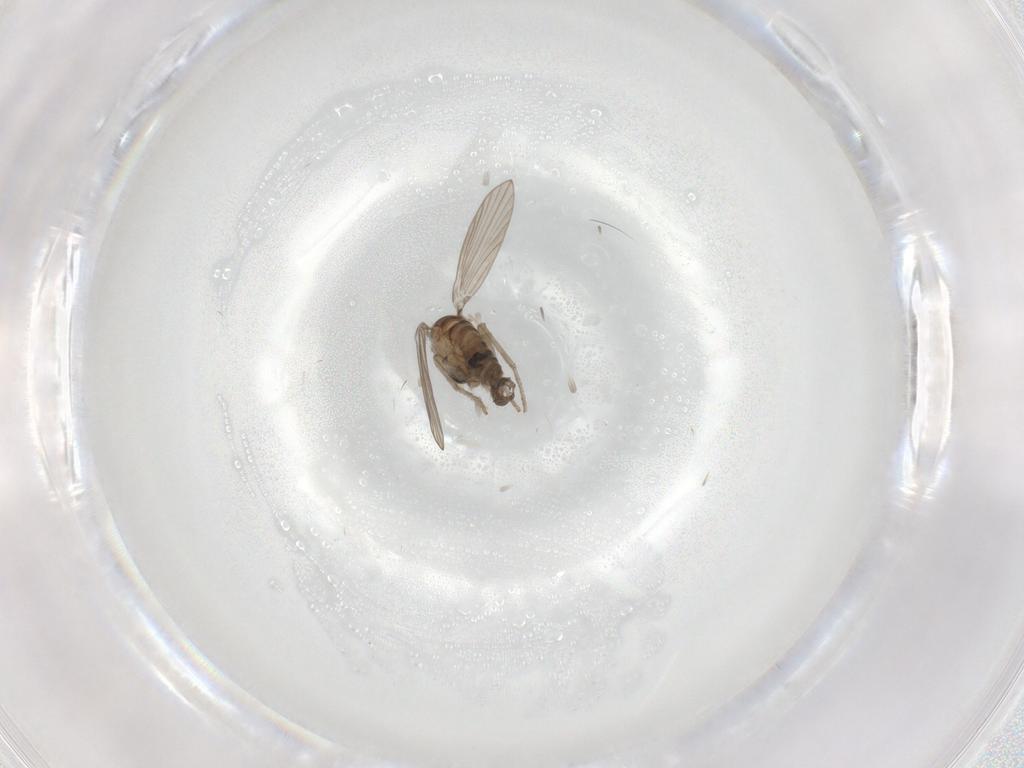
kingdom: Animalia
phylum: Arthropoda
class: Insecta
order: Diptera
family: Psychodidae
